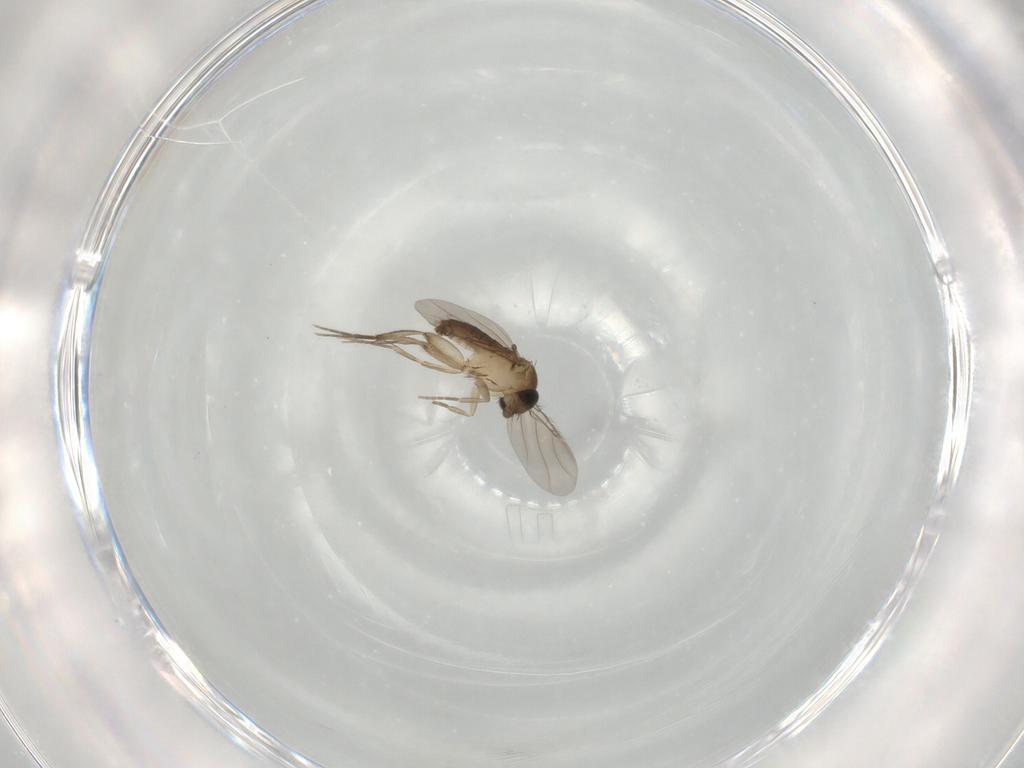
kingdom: Animalia
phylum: Arthropoda
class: Insecta
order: Diptera
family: Phoridae
